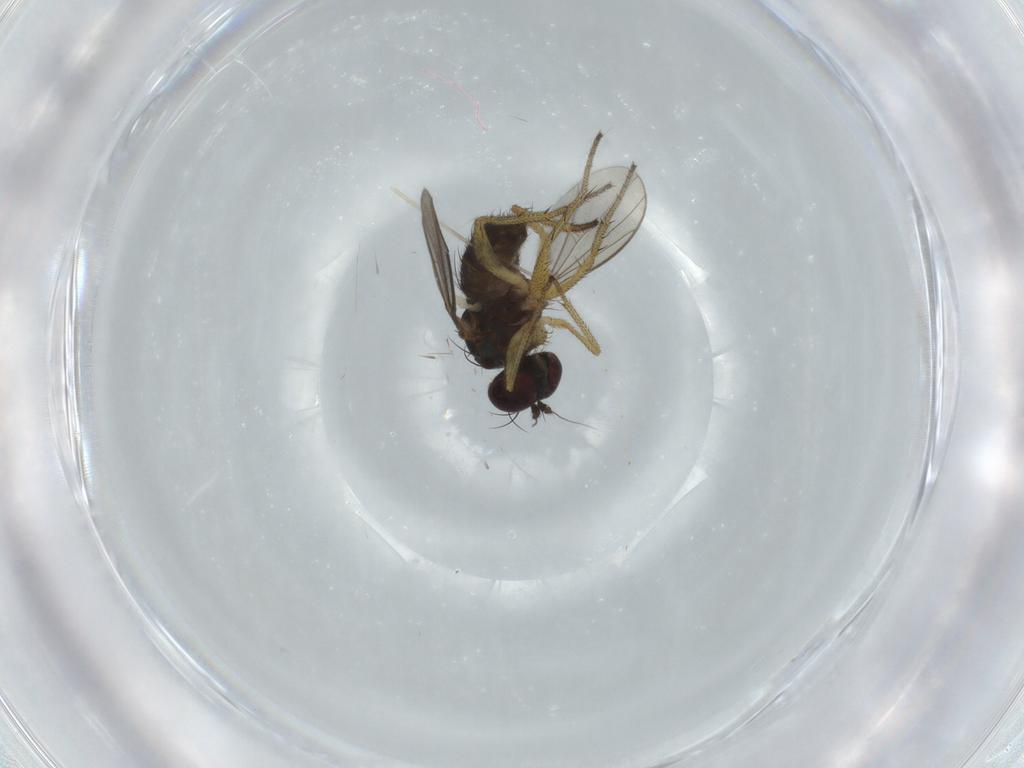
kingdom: Animalia
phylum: Arthropoda
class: Insecta
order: Diptera
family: Dolichopodidae
